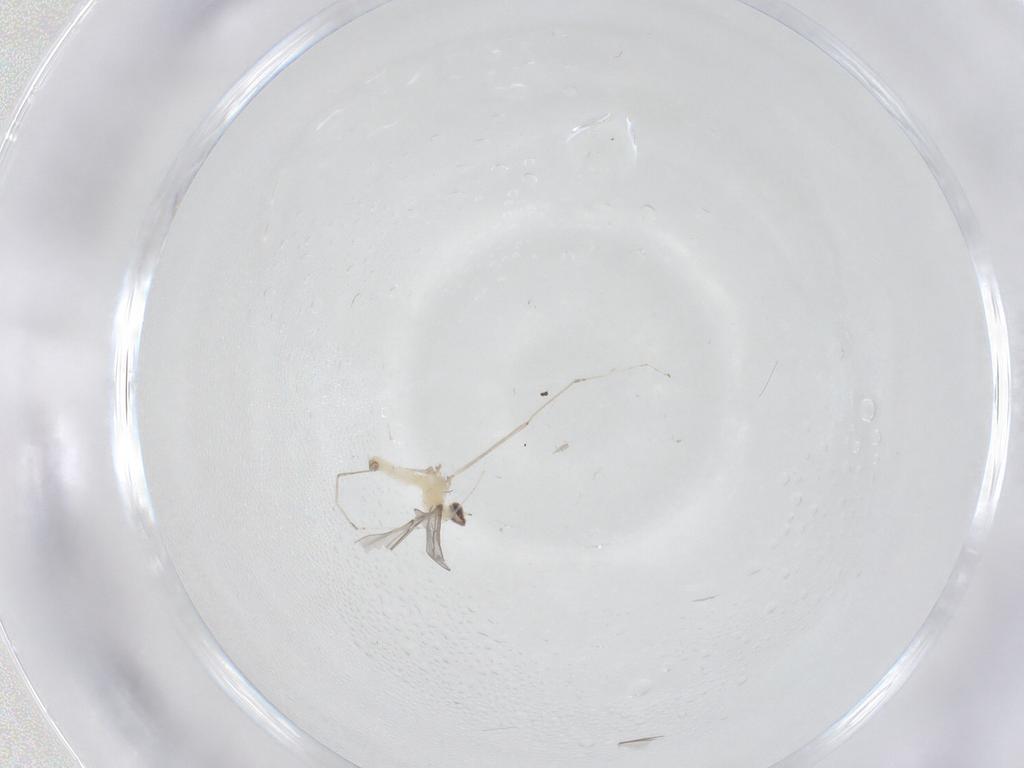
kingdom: Animalia
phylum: Arthropoda
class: Insecta
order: Diptera
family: Cecidomyiidae
